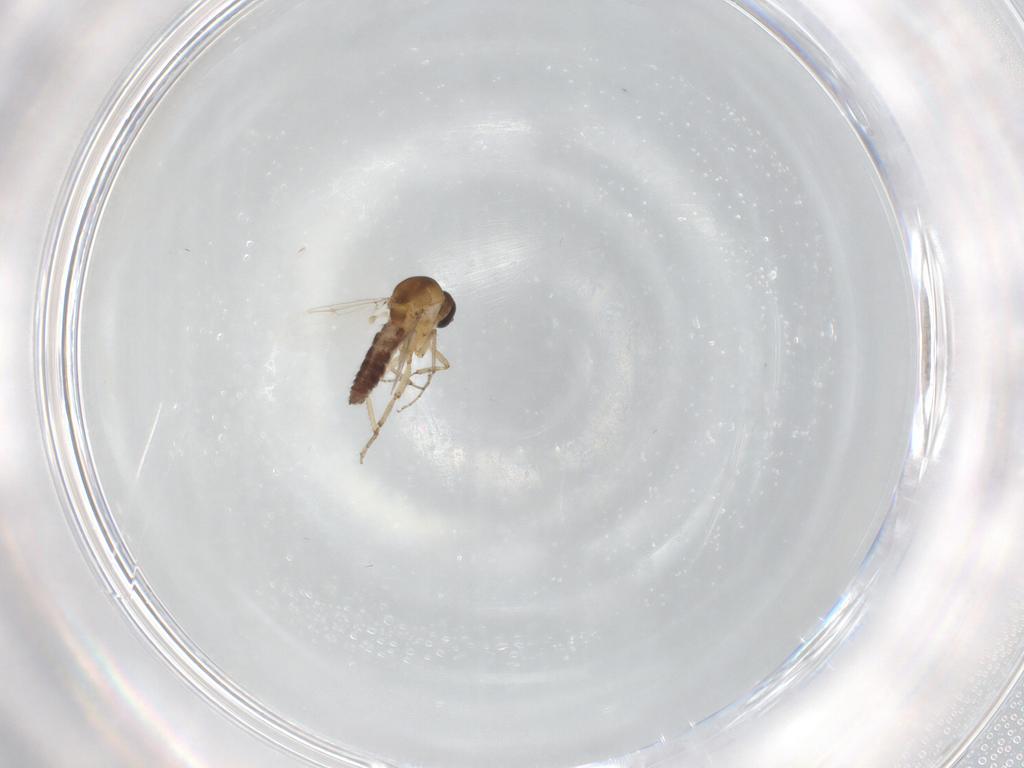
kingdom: Animalia
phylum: Arthropoda
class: Insecta
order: Diptera
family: Ceratopogonidae
